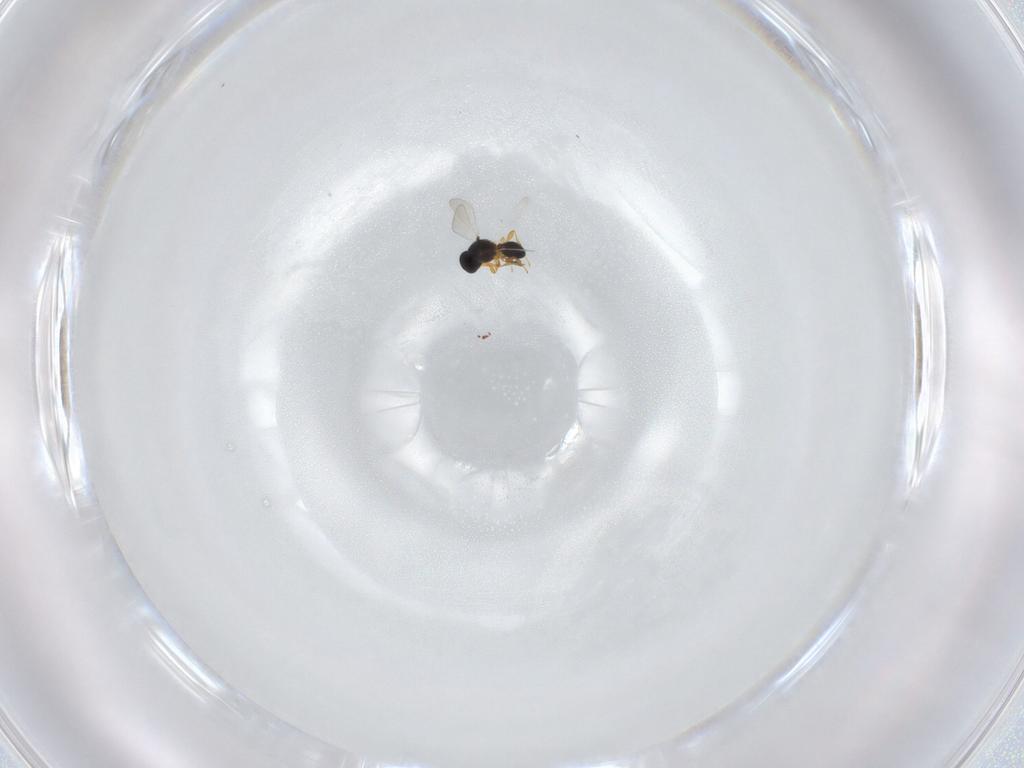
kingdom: Animalia
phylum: Arthropoda
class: Insecta
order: Hymenoptera
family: Platygastridae
